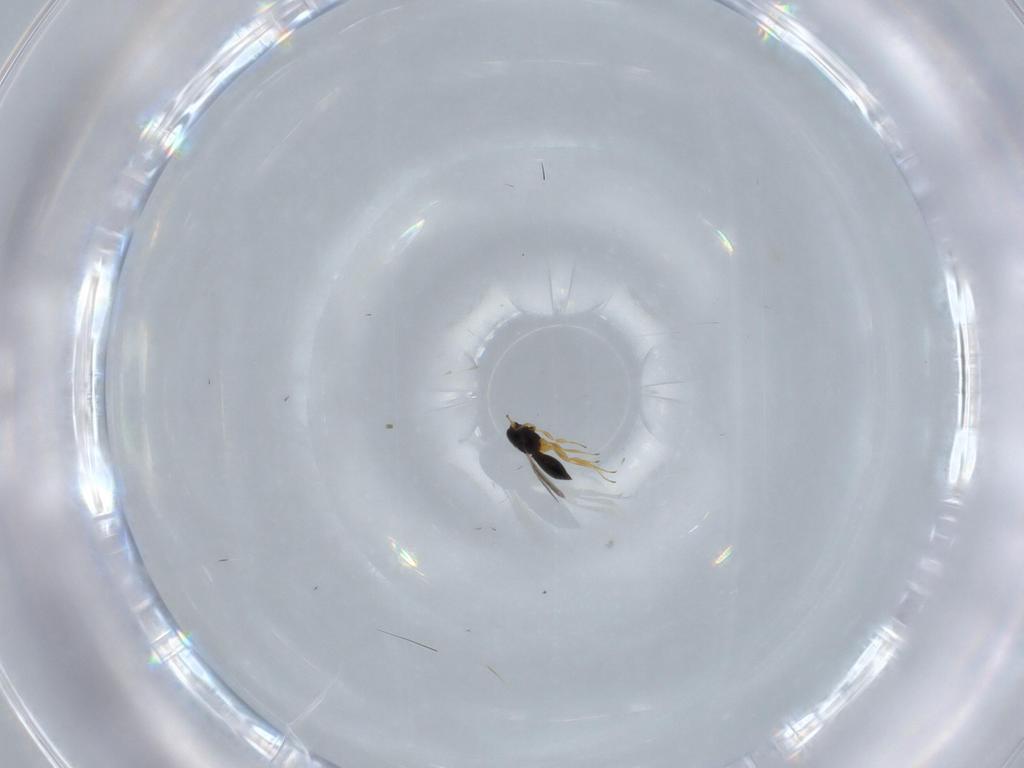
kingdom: Animalia
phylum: Arthropoda
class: Insecta
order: Hymenoptera
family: Scelionidae
